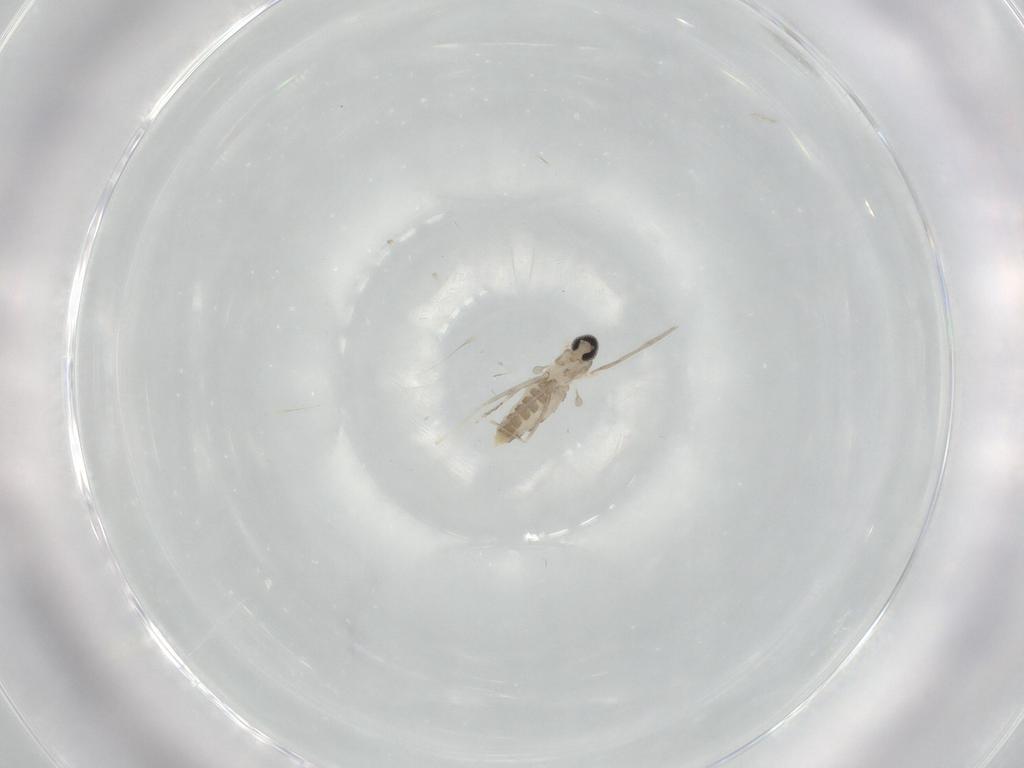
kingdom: Animalia
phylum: Arthropoda
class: Insecta
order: Diptera
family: Cecidomyiidae
